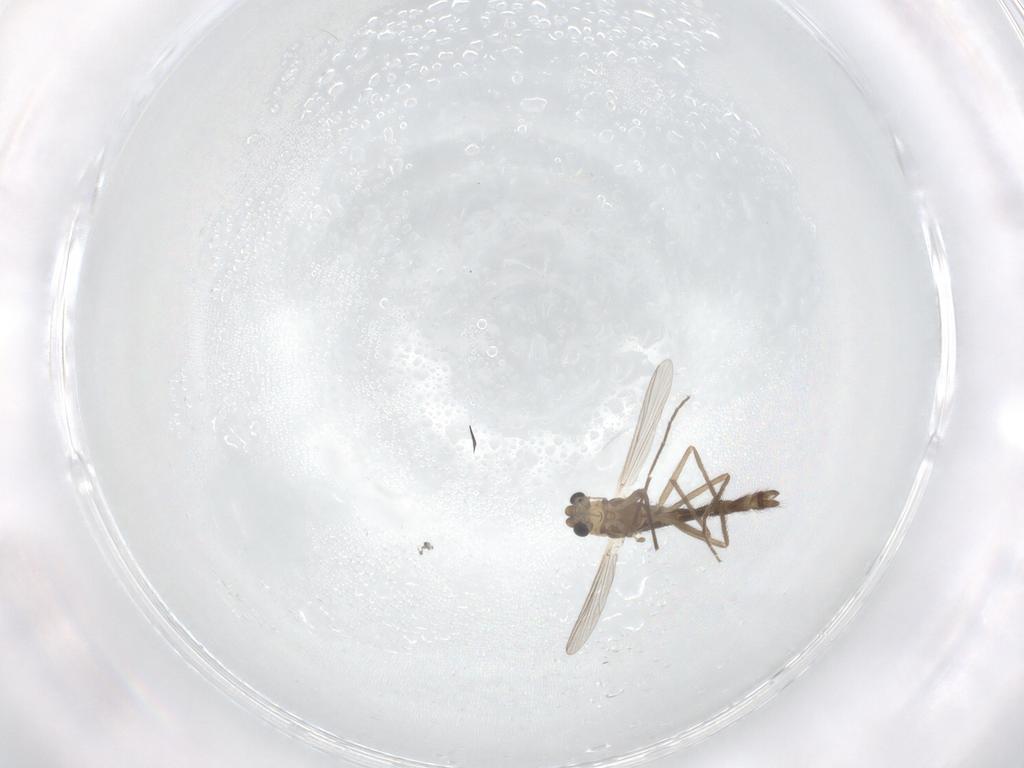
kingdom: Animalia
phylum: Arthropoda
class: Insecta
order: Diptera
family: Chironomidae
